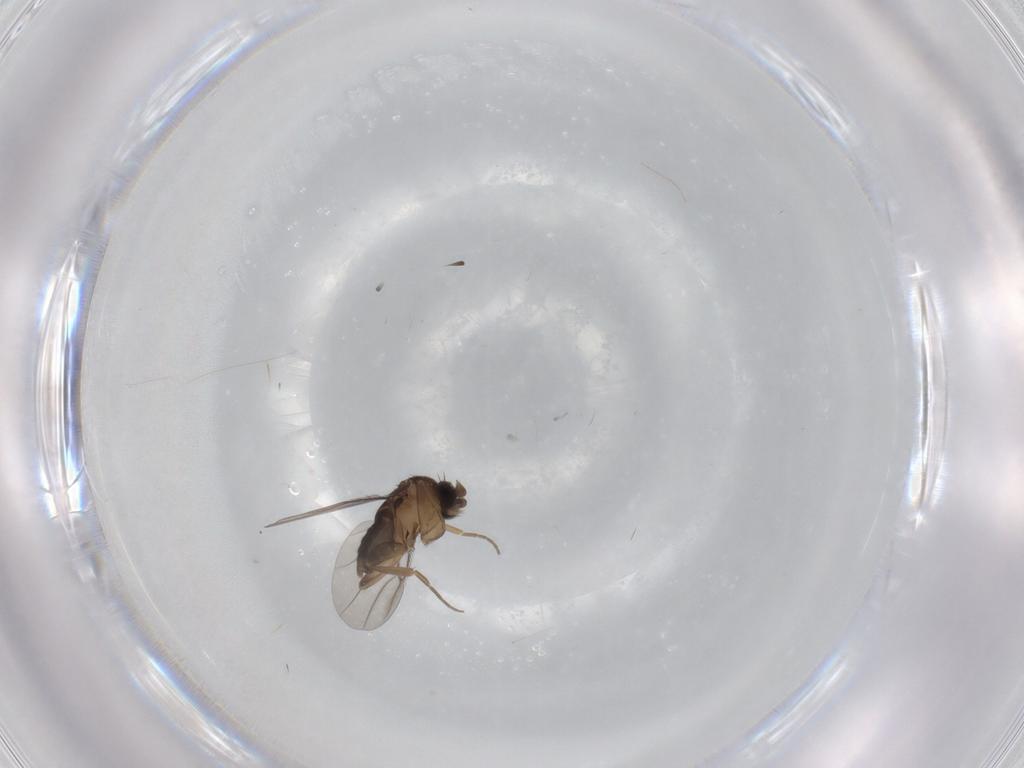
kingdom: Animalia
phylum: Arthropoda
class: Insecta
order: Diptera
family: Phoridae
